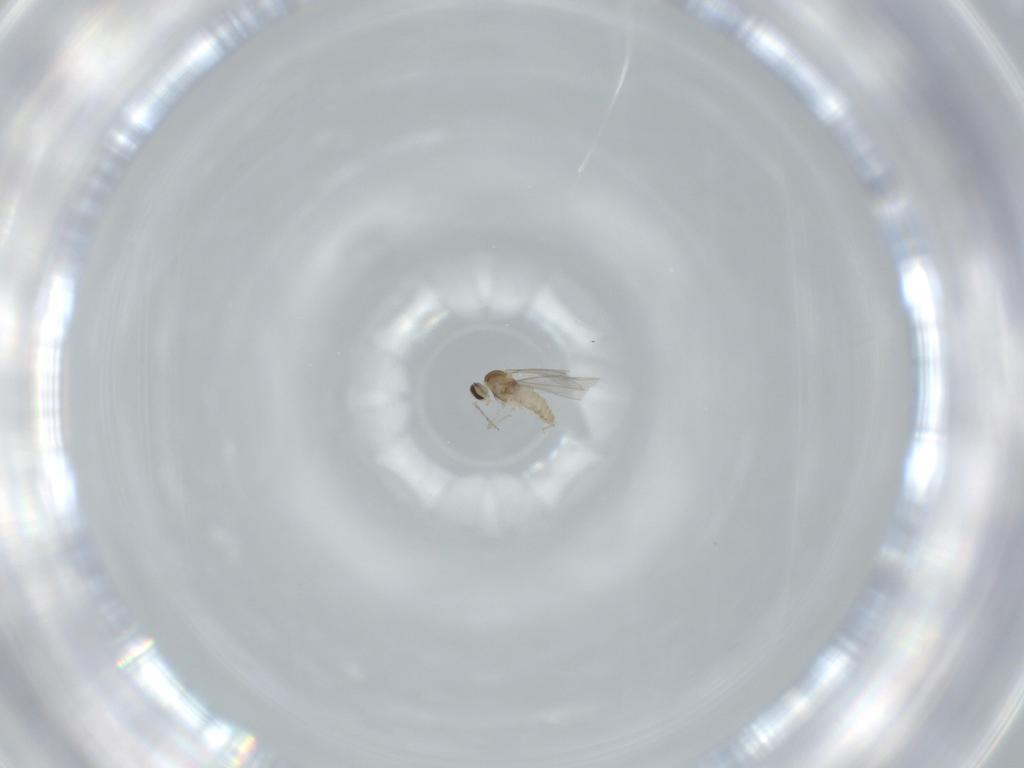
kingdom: Animalia
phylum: Arthropoda
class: Insecta
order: Diptera
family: Cecidomyiidae
